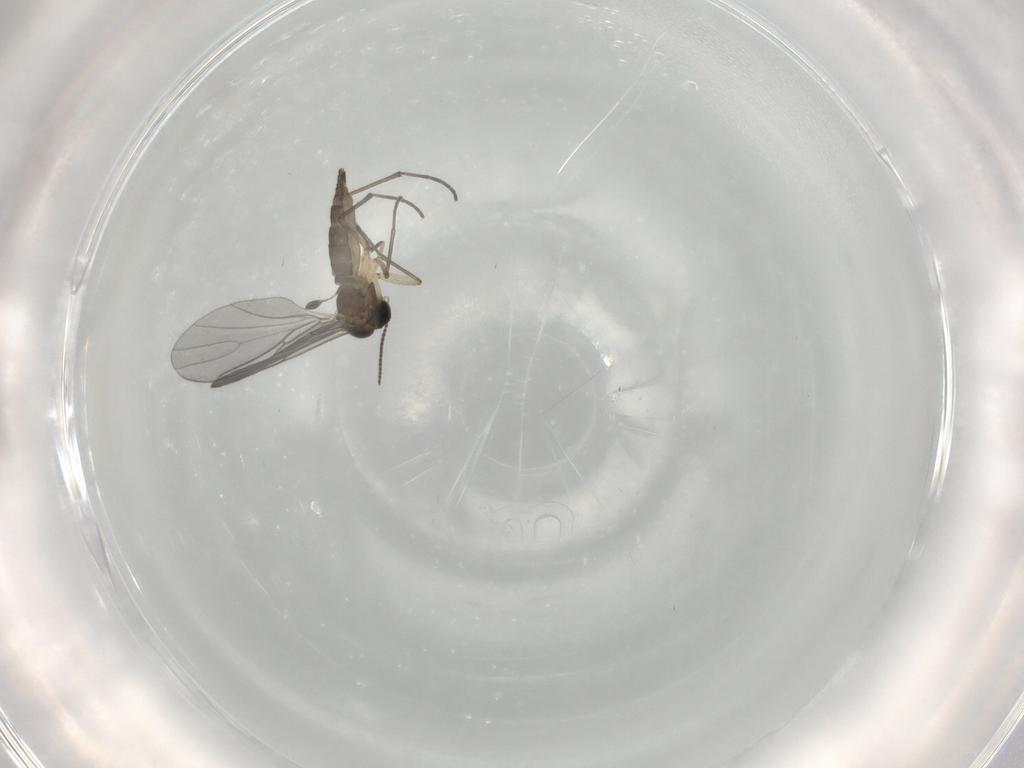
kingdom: Animalia
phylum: Arthropoda
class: Insecta
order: Diptera
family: Sciaridae
